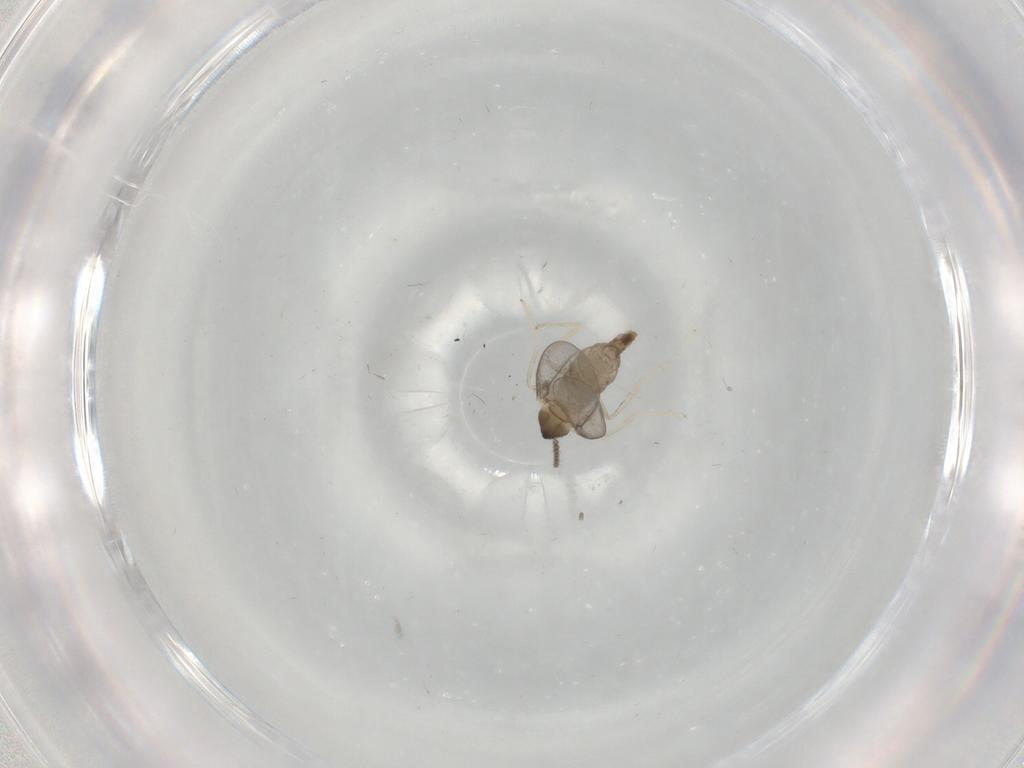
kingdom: Animalia
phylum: Arthropoda
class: Insecta
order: Diptera
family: Cecidomyiidae
